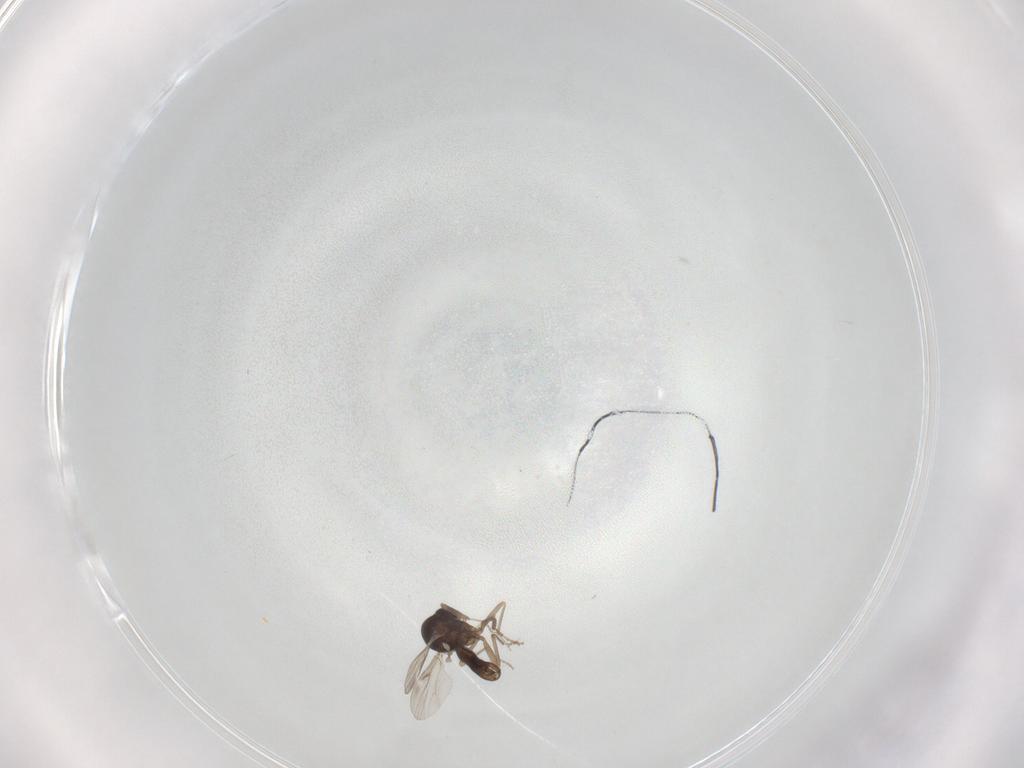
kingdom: Animalia
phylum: Arthropoda
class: Insecta
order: Diptera
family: Ceratopogonidae
